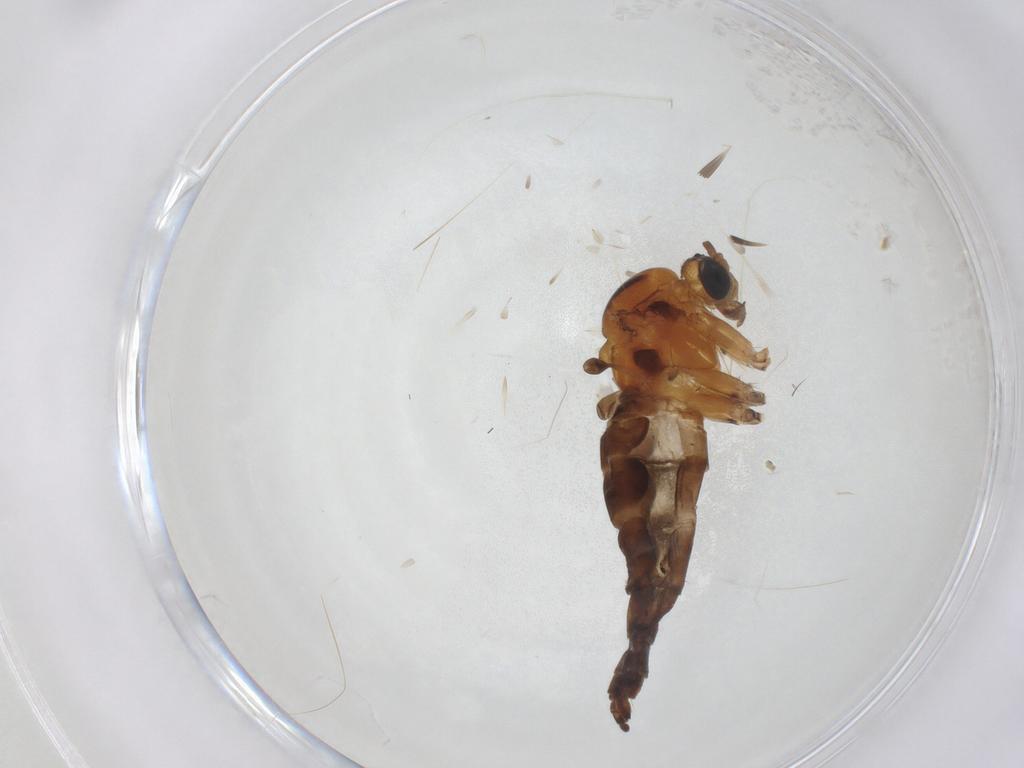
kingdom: Animalia
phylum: Arthropoda
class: Insecta
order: Diptera
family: Sciaridae
